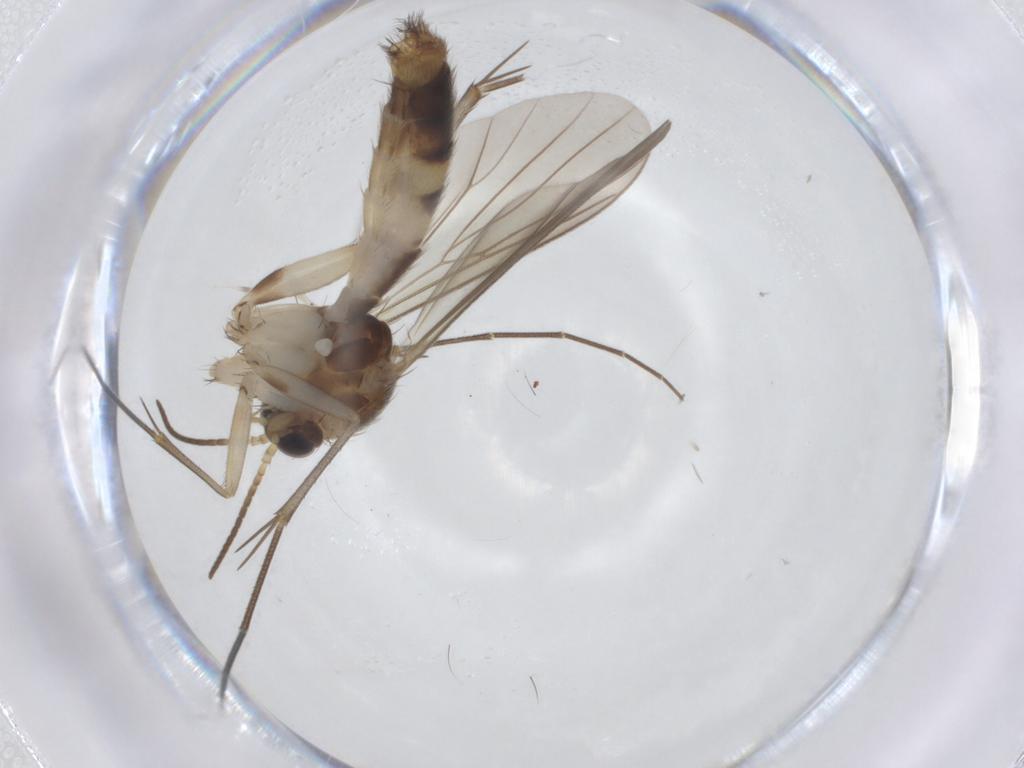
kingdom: Animalia
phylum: Arthropoda
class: Insecta
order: Diptera
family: Mycetophilidae
